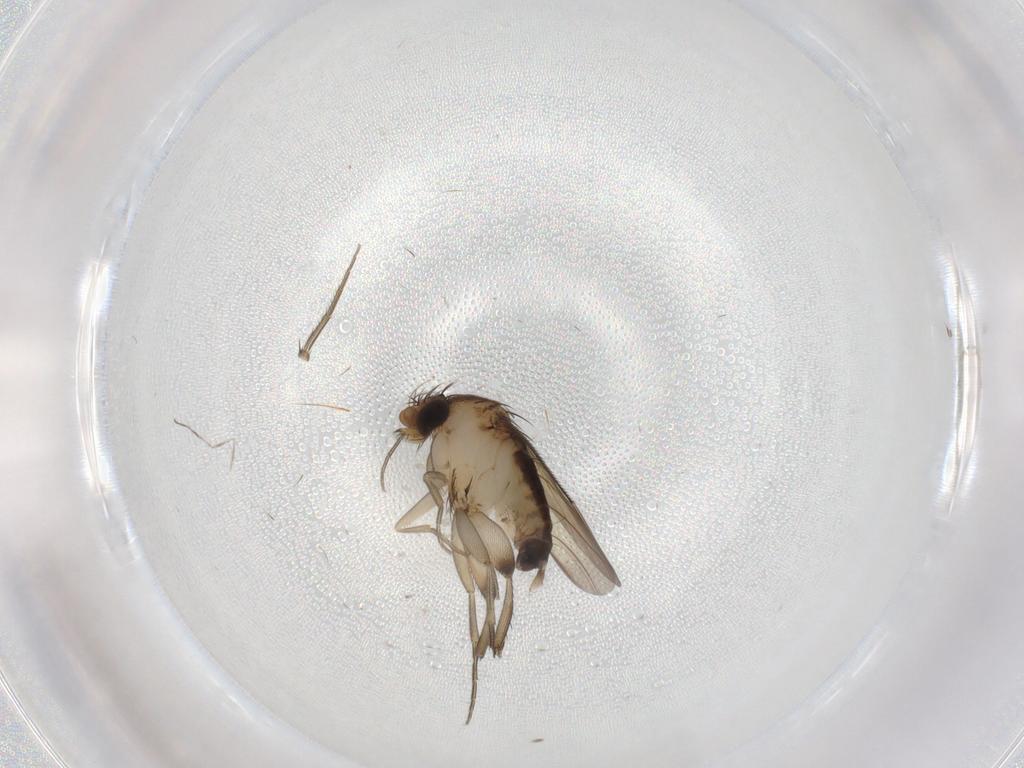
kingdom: Animalia
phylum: Arthropoda
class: Insecta
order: Diptera
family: Phoridae
